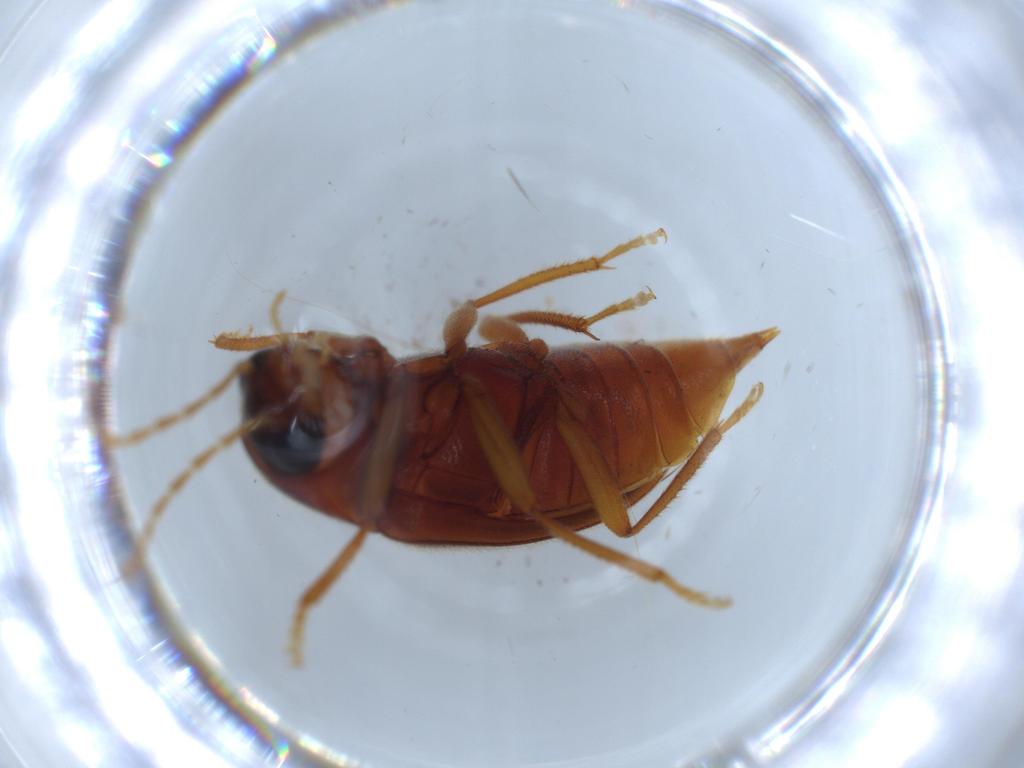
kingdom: Animalia
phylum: Arthropoda
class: Insecta
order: Coleoptera
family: Ptilodactylidae
